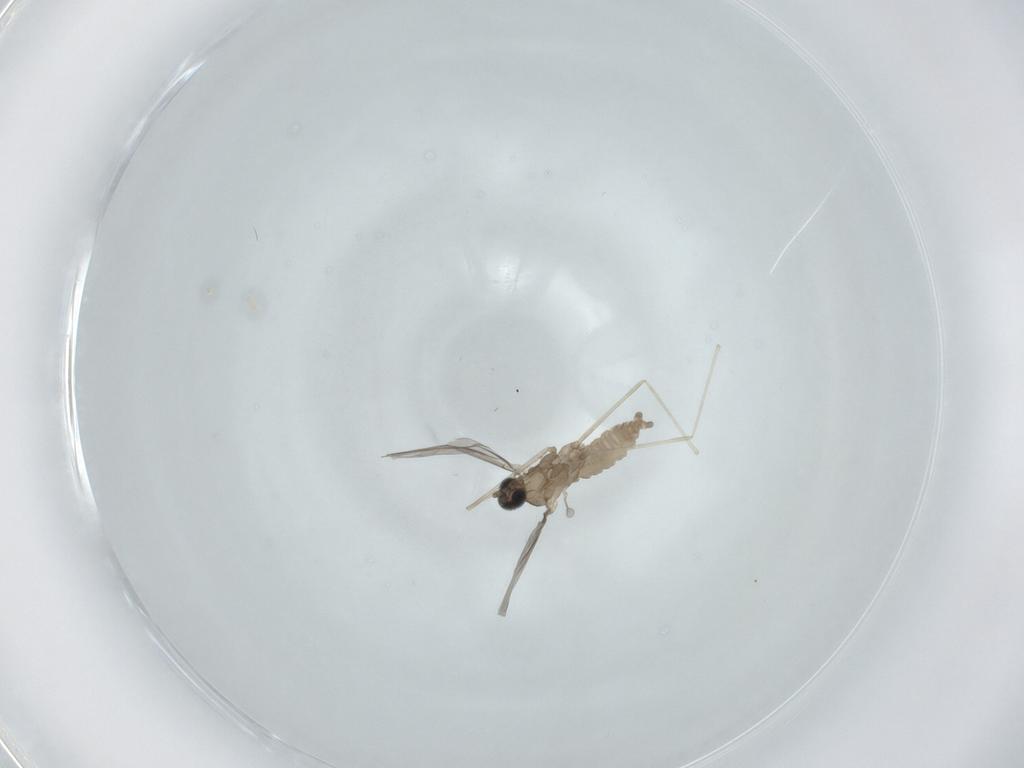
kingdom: Animalia
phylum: Arthropoda
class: Insecta
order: Diptera
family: Sciaridae
